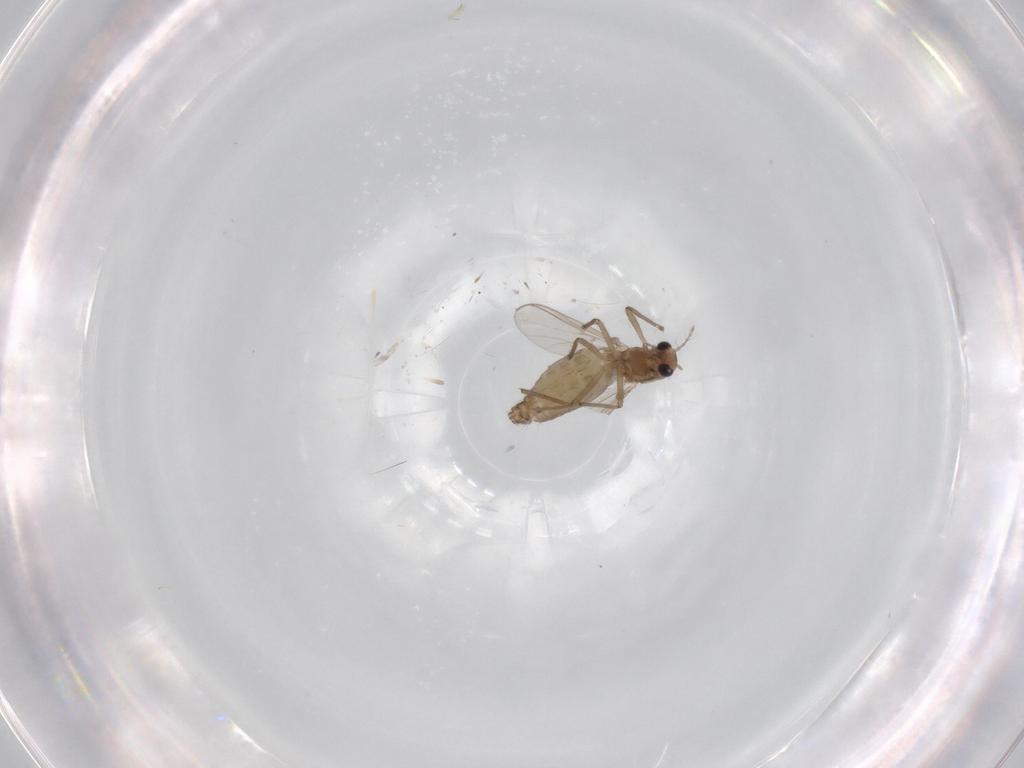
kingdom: Animalia
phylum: Arthropoda
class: Insecta
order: Diptera
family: Chironomidae
